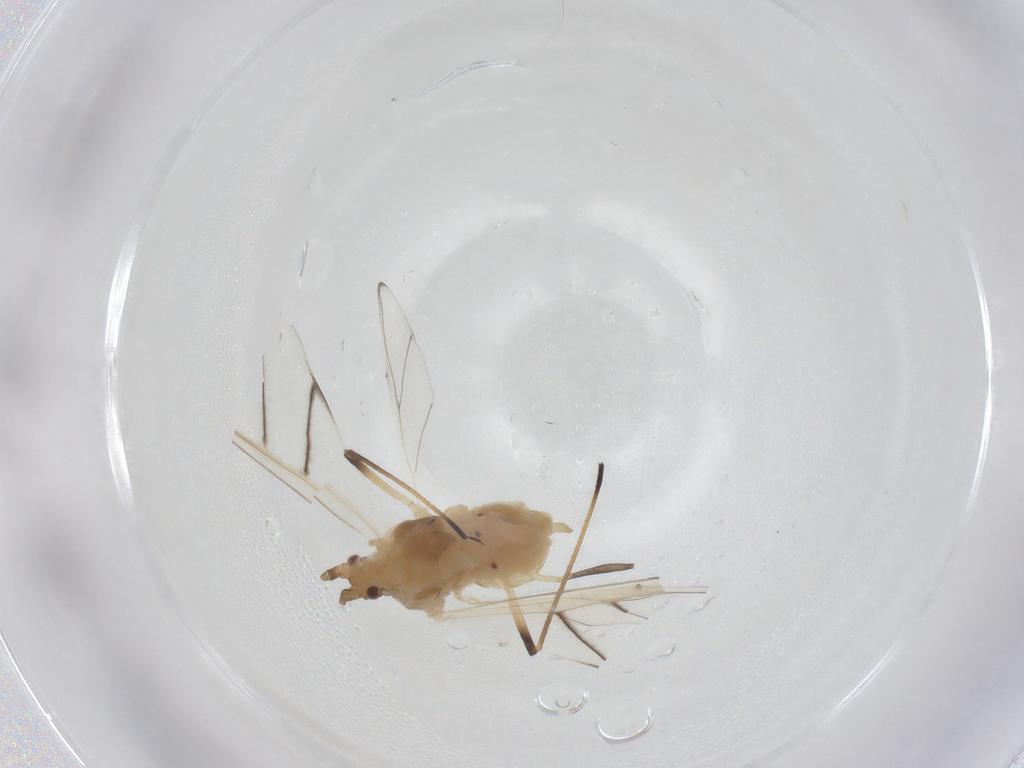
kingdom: Animalia
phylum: Arthropoda
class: Insecta
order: Hemiptera
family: Aphididae
